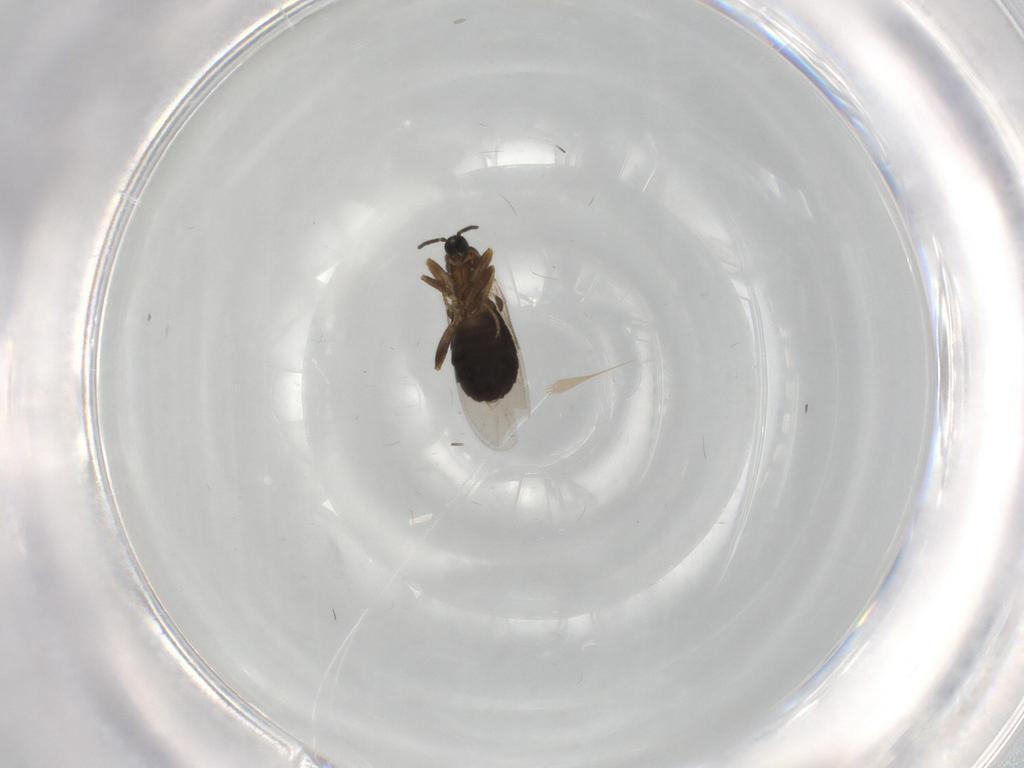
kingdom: Animalia
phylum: Arthropoda
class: Insecta
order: Diptera
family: Scatopsidae
